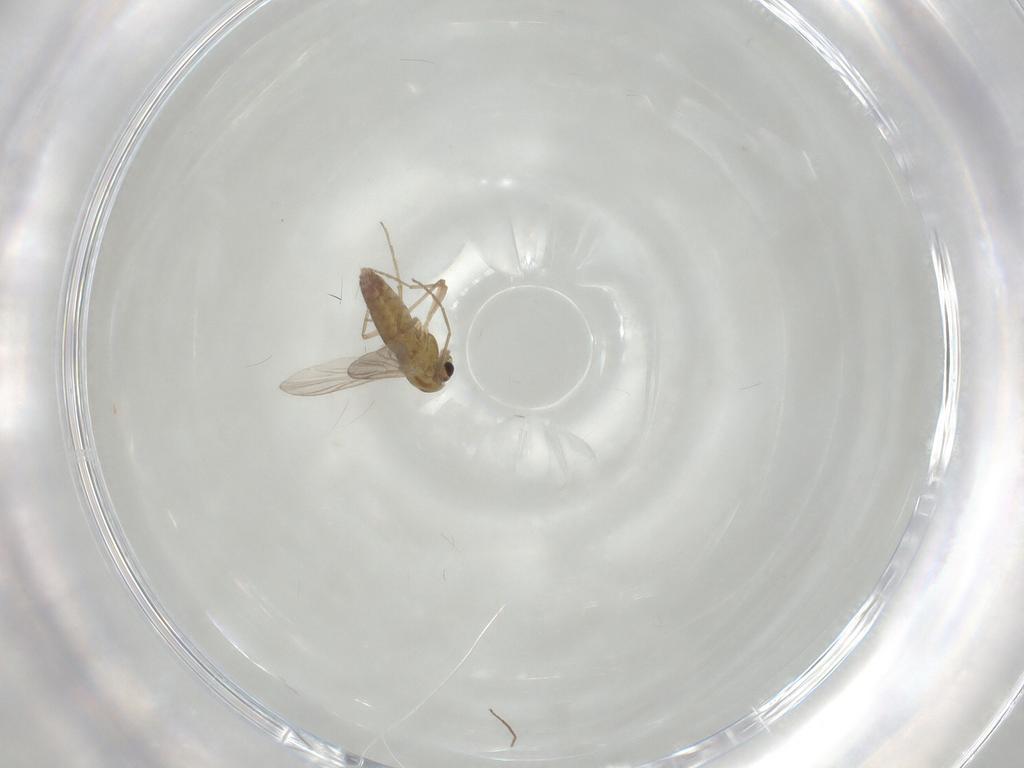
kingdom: Animalia
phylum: Arthropoda
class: Insecta
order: Diptera
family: Chironomidae
